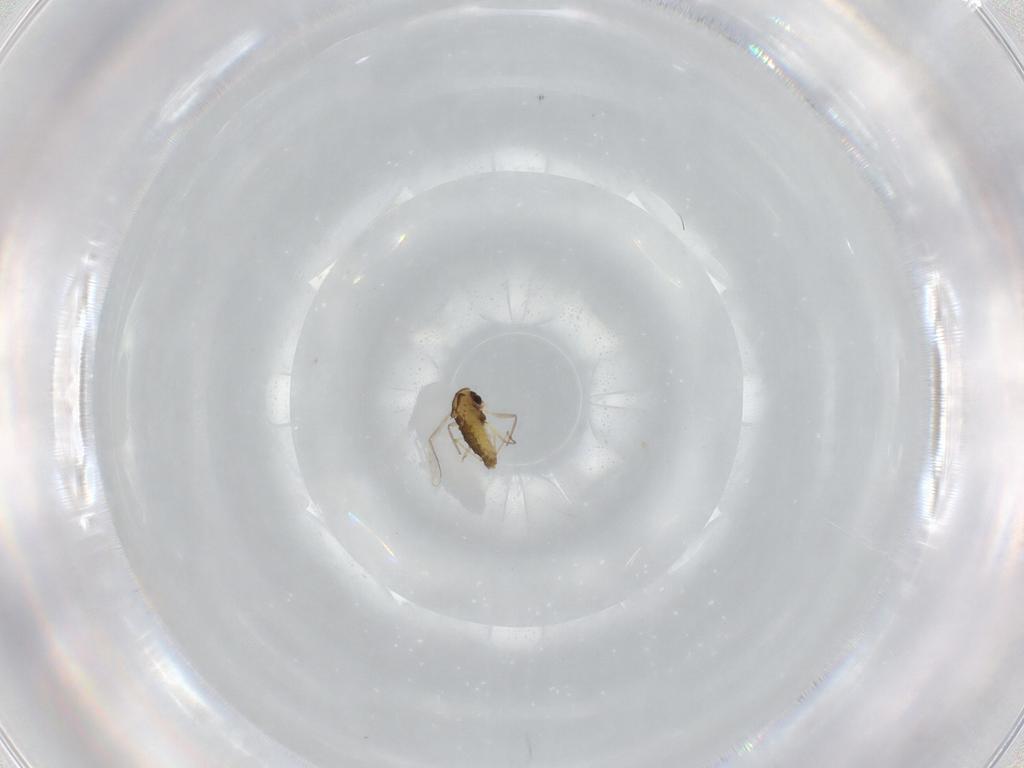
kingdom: Animalia
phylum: Arthropoda
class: Insecta
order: Diptera
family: Chironomidae
